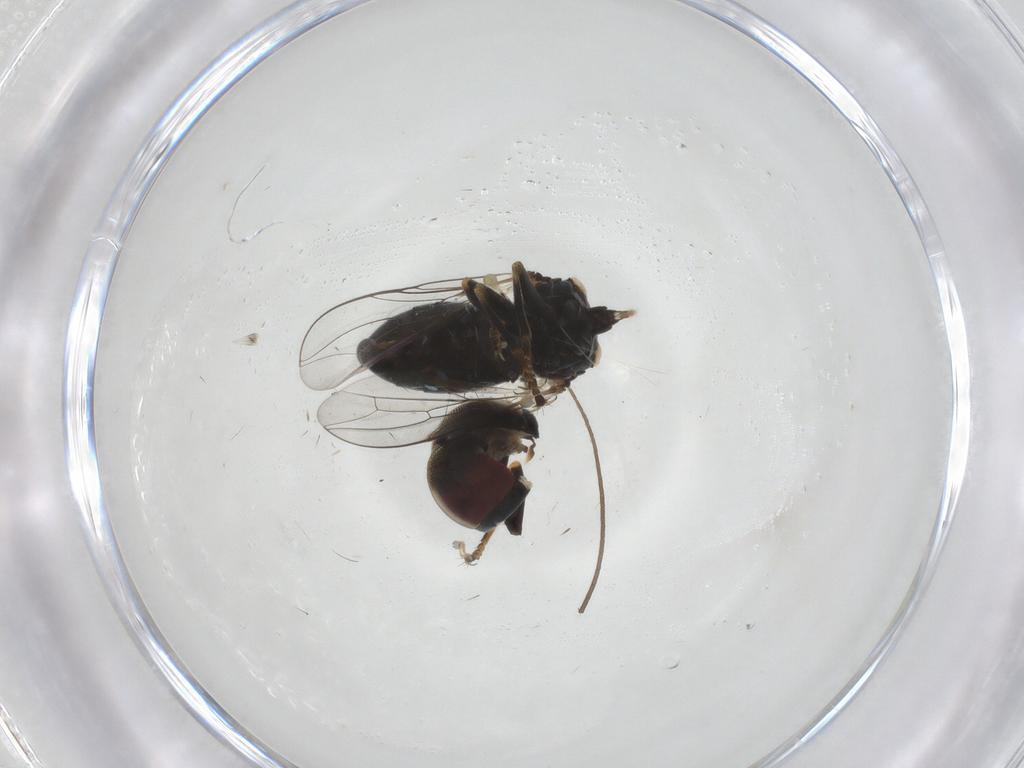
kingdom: Animalia
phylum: Arthropoda
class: Insecta
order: Diptera
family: Pipunculidae
